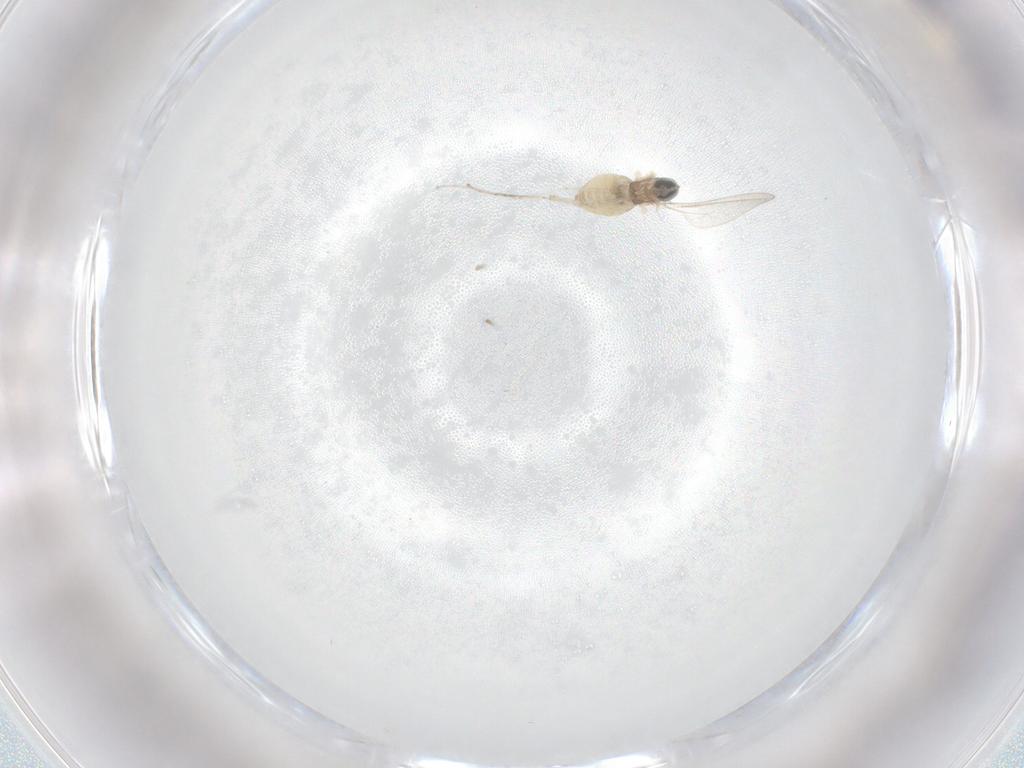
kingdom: Animalia
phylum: Arthropoda
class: Insecta
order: Diptera
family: Cecidomyiidae
